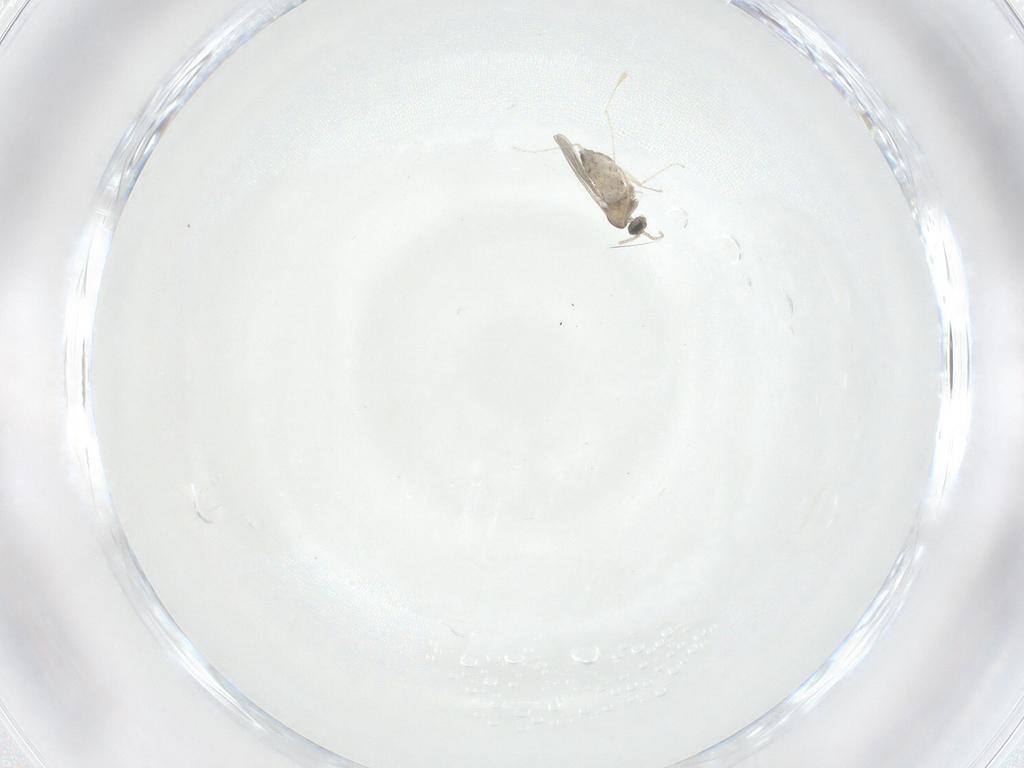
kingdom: Animalia
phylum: Arthropoda
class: Insecta
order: Diptera
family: Cecidomyiidae
